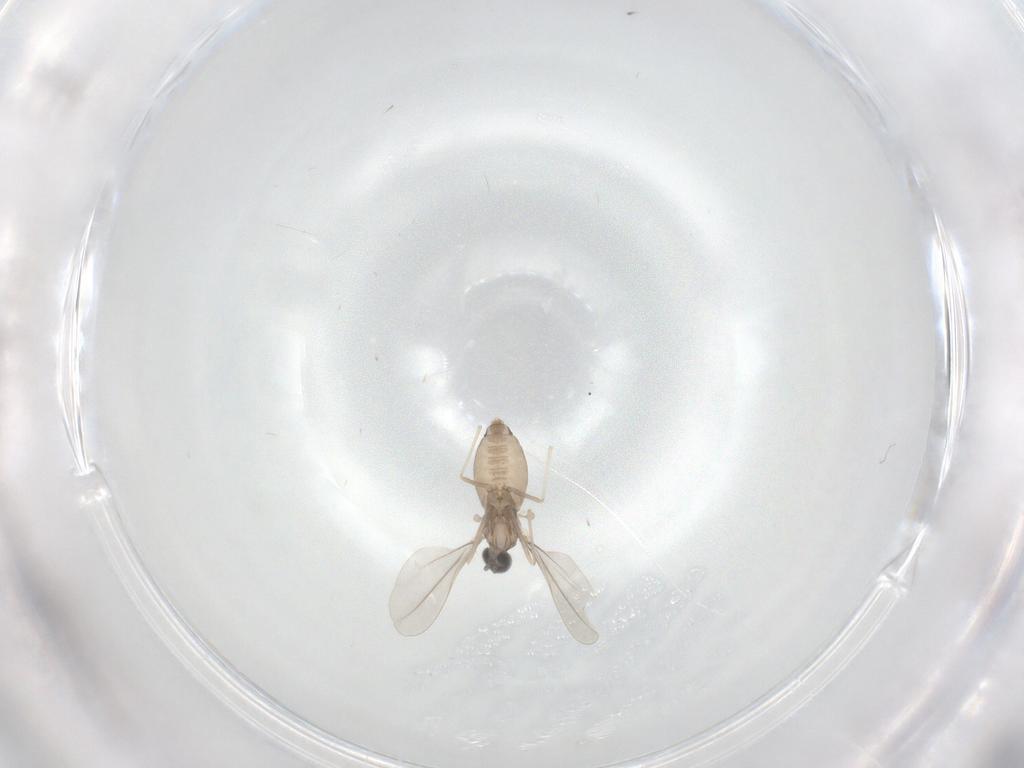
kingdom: Animalia
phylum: Arthropoda
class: Insecta
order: Diptera
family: Cecidomyiidae
